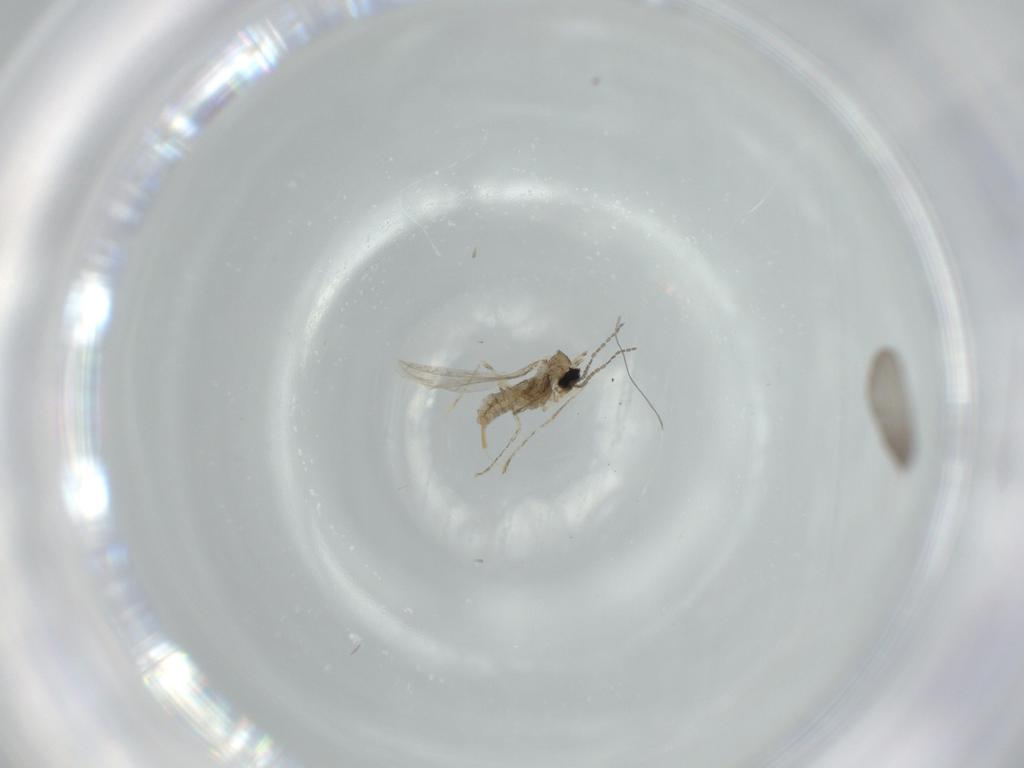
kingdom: Animalia
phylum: Arthropoda
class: Insecta
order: Diptera
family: Cecidomyiidae
